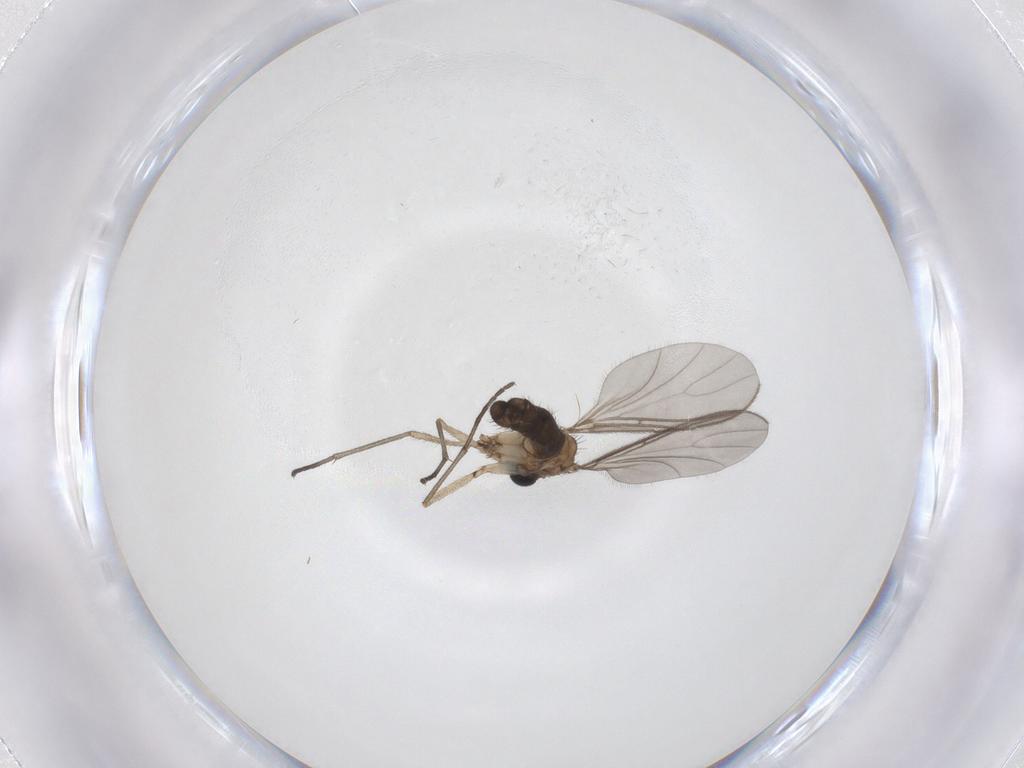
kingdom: Animalia
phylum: Arthropoda
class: Insecta
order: Diptera
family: Sciaridae
